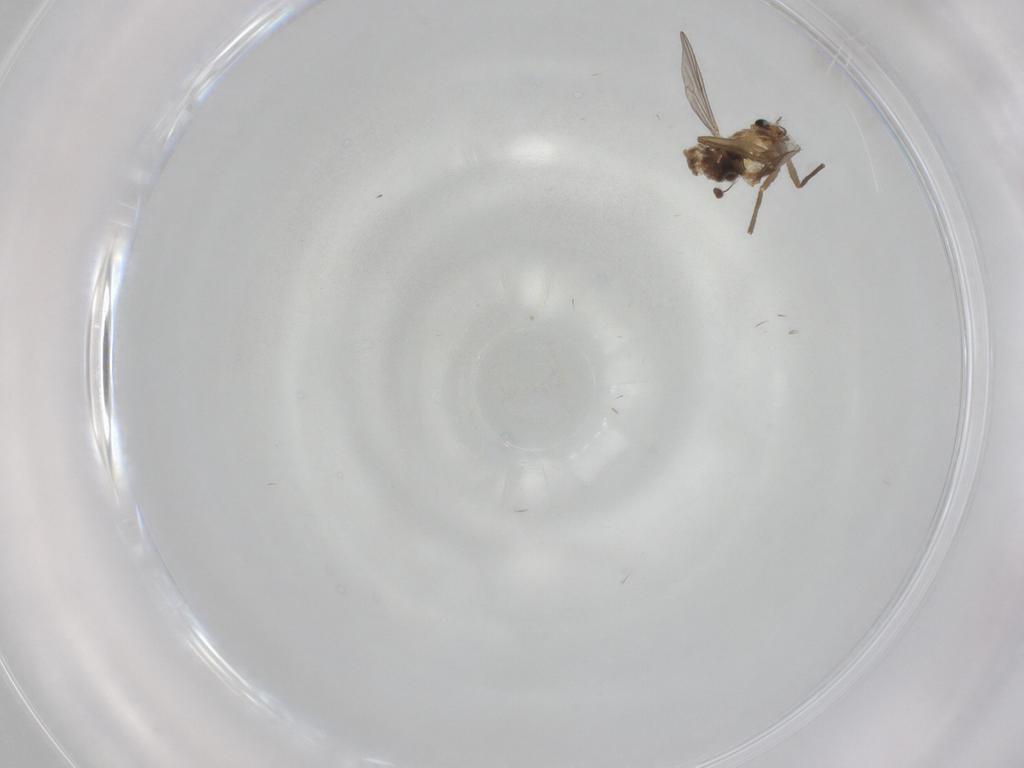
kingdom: Animalia
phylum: Arthropoda
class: Insecta
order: Diptera
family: Chironomidae
